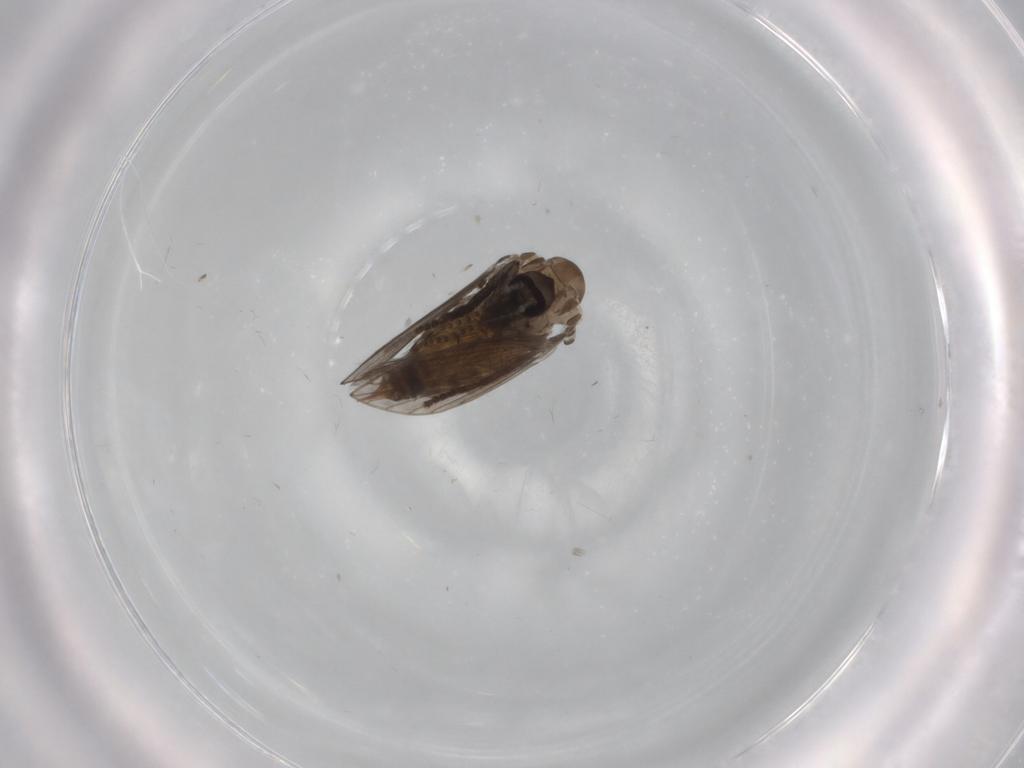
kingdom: Animalia
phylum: Arthropoda
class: Insecta
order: Diptera
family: Psychodidae
